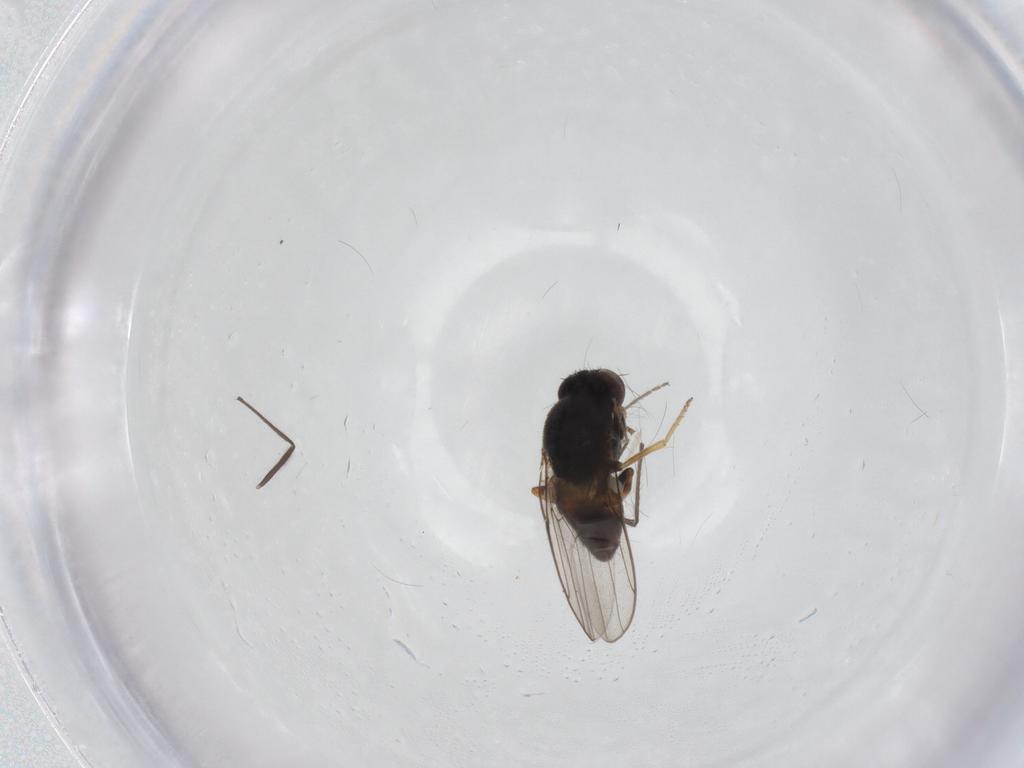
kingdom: Animalia
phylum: Arthropoda
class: Insecta
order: Diptera
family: Chloropidae
